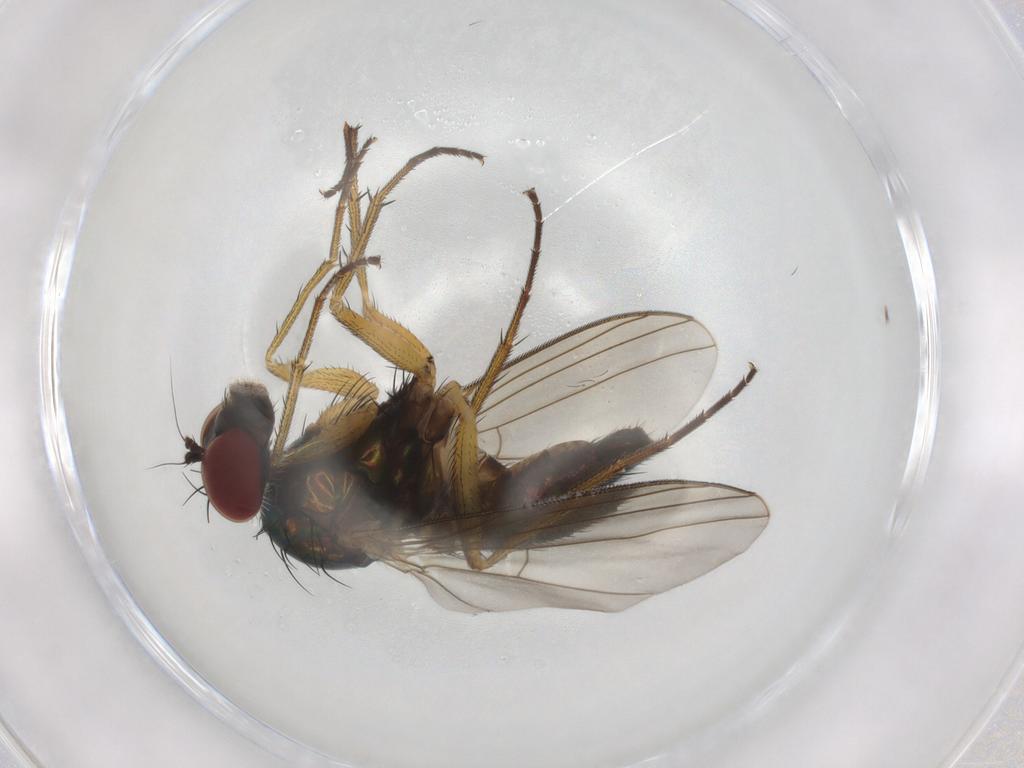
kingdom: Animalia
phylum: Arthropoda
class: Insecta
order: Diptera
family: Dolichopodidae
